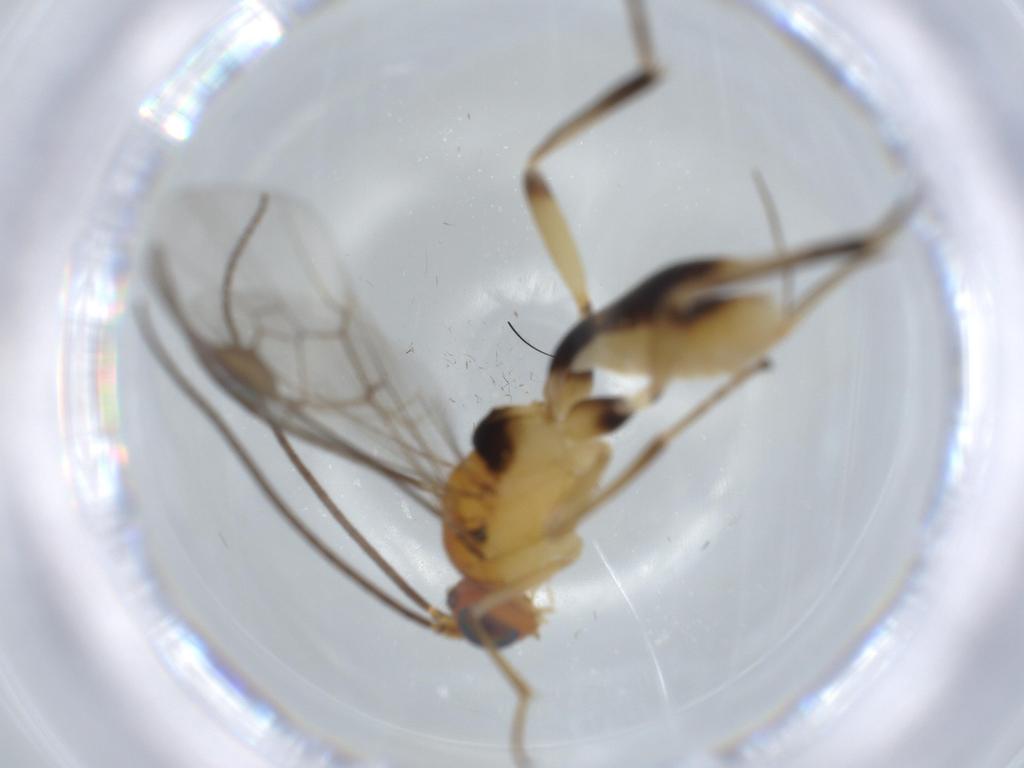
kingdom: Animalia
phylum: Arthropoda
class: Insecta
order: Hymenoptera
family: Scelionidae
